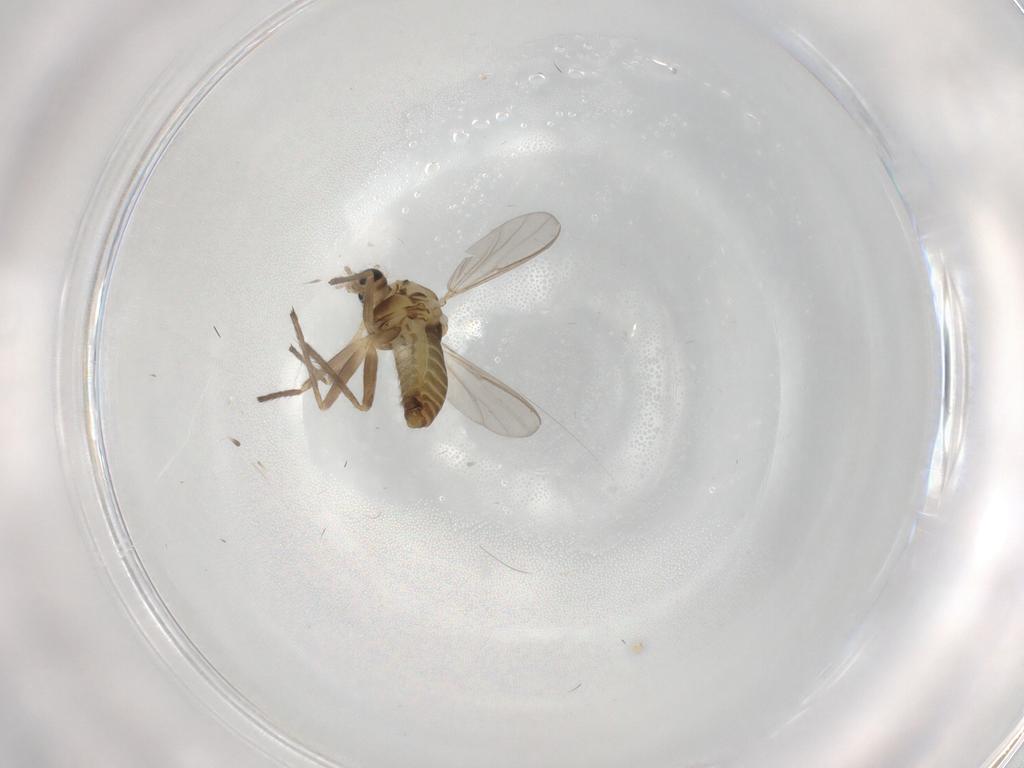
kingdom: Animalia
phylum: Arthropoda
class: Insecta
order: Diptera
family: Chironomidae
